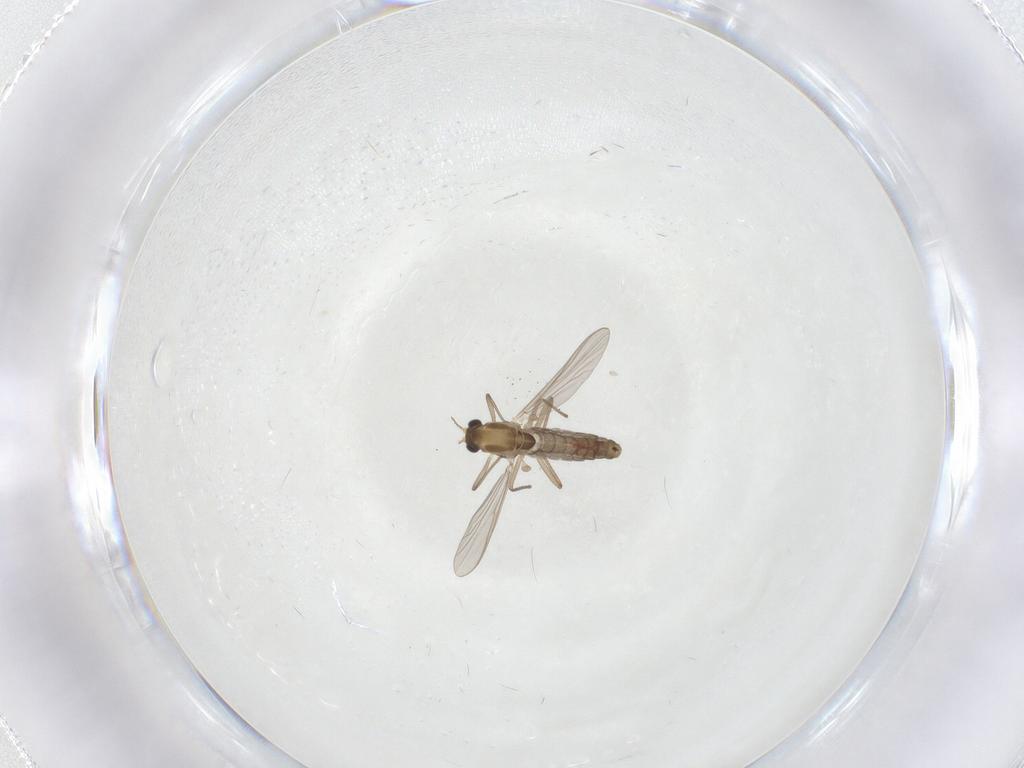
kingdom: Animalia
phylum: Arthropoda
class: Insecta
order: Diptera
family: Chironomidae
